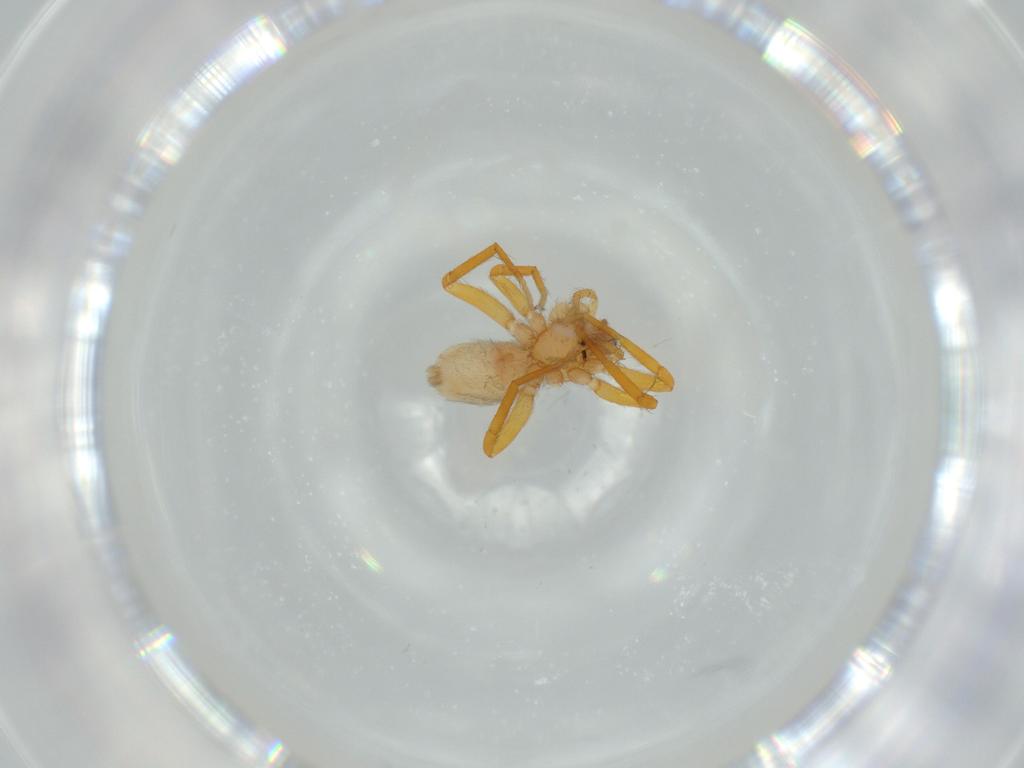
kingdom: Animalia
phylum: Arthropoda
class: Arachnida
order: Araneae
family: Oonopidae
